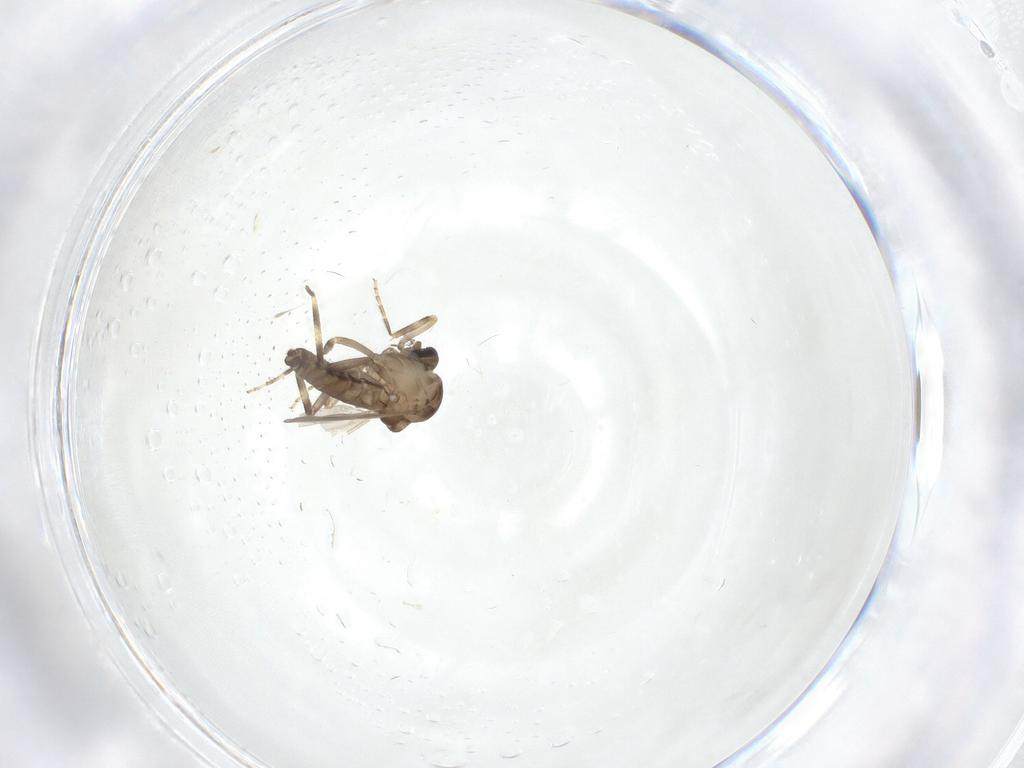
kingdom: Animalia
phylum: Arthropoda
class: Insecta
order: Diptera
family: Ceratopogonidae
